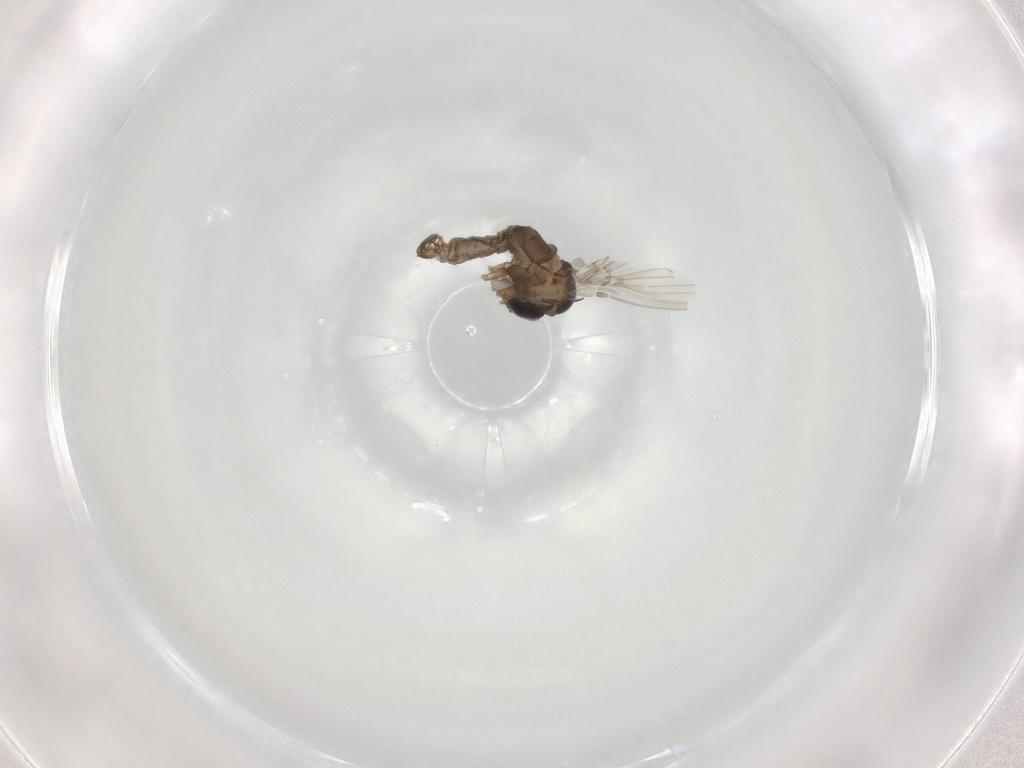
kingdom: Animalia
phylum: Arthropoda
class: Insecta
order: Diptera
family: Psychodidae
